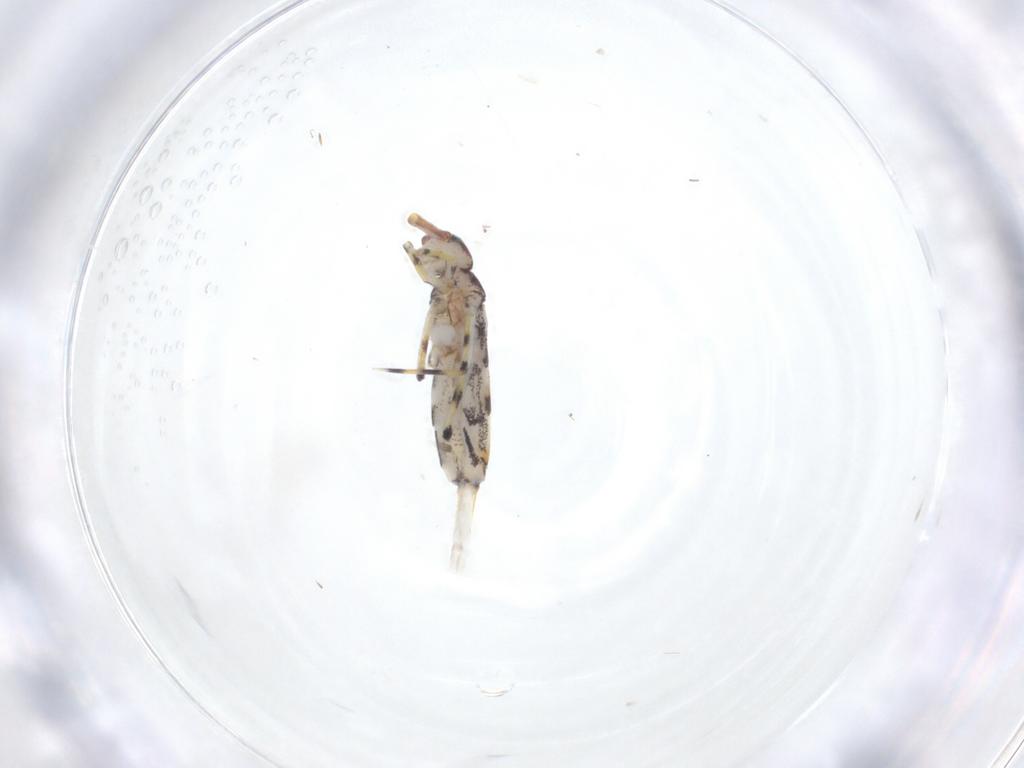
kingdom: Animalia
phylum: Arthropoda
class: Collembola
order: Entomobryomorpha
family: Entomobryidae
